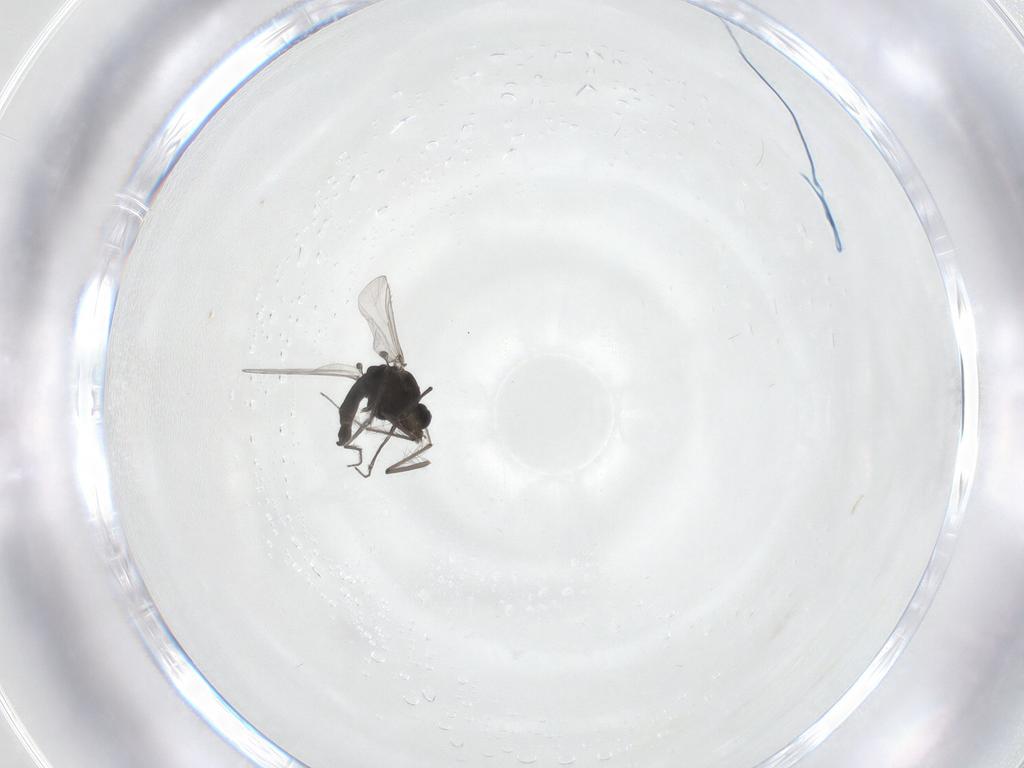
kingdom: Animalia
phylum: Arthropoda
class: Insecta
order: Diptera
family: Chironomidae
